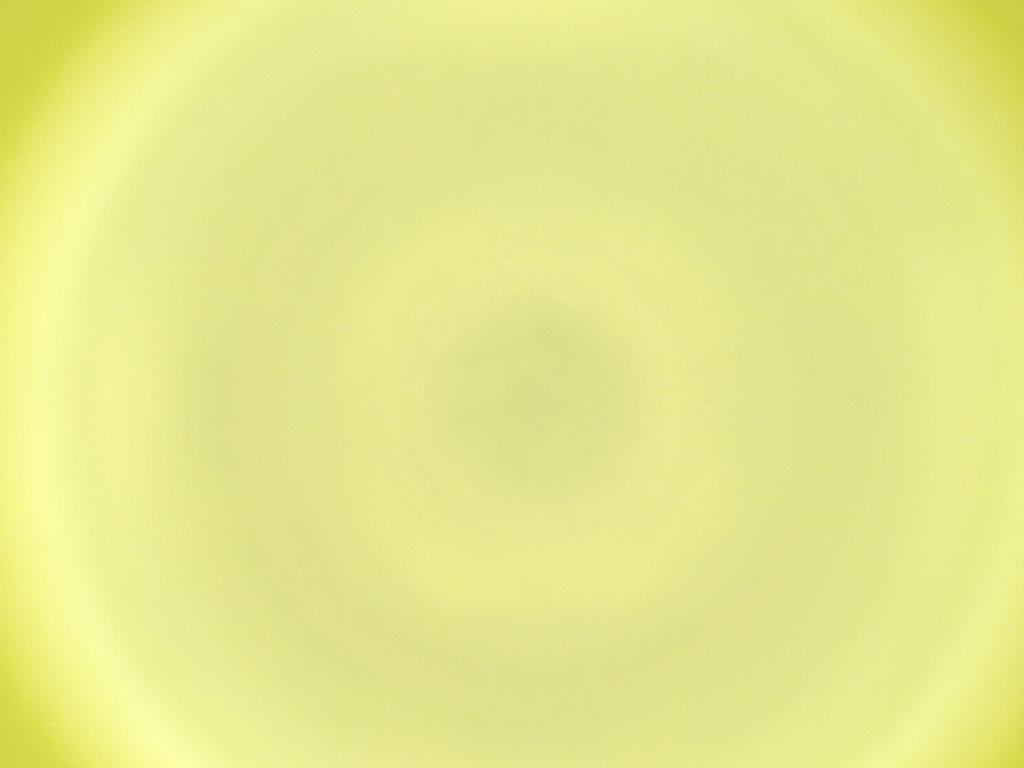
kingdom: Animalia
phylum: Arthropoda
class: Insecta
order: Diptera
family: Cecidomyiidae
